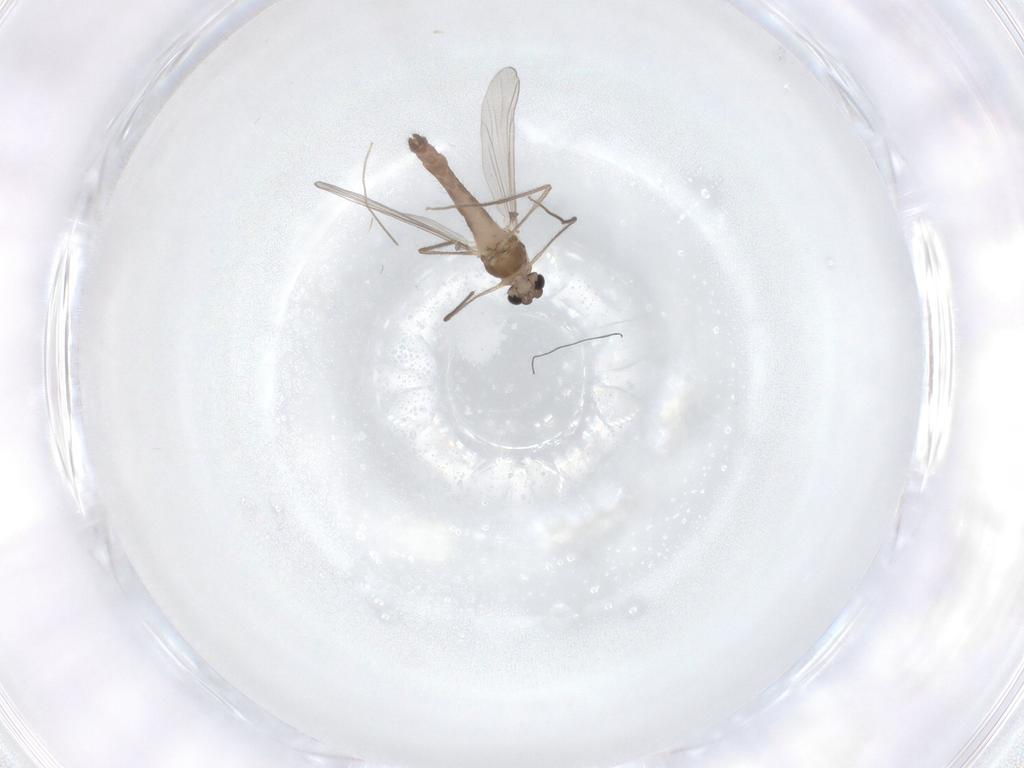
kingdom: Animalia
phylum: Arthropoda
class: Insecta
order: Diptera
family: Chironomidae
